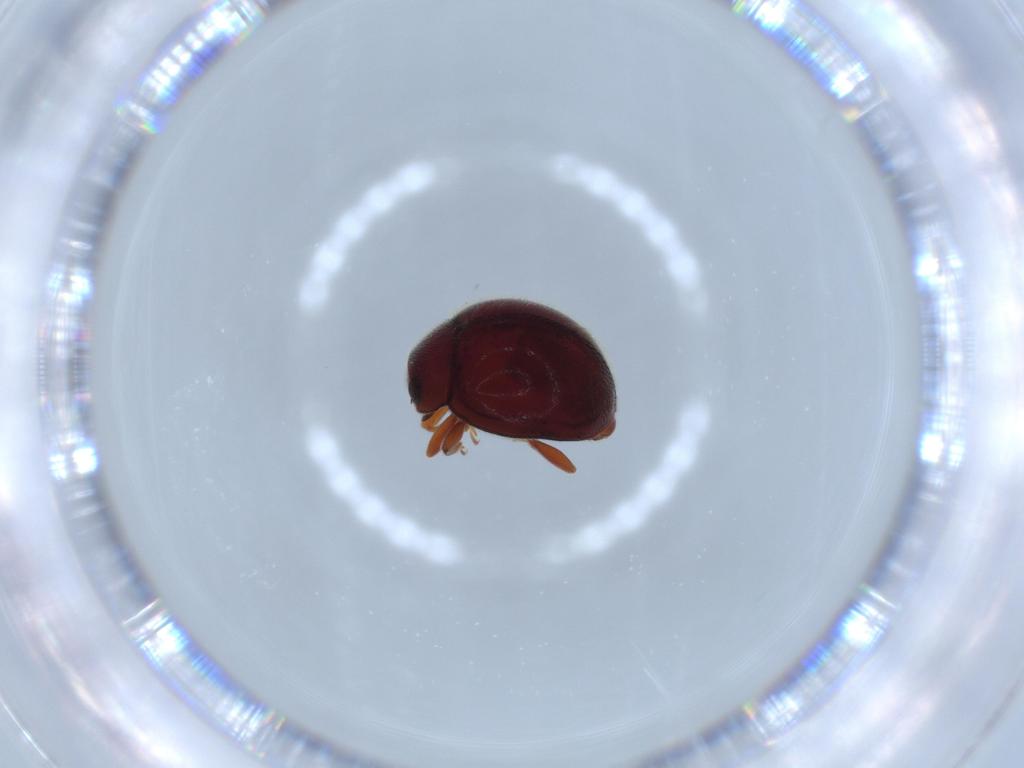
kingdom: Animalia
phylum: Arthropoda
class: Insecta
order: Coleoptera
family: Coccinellidae
